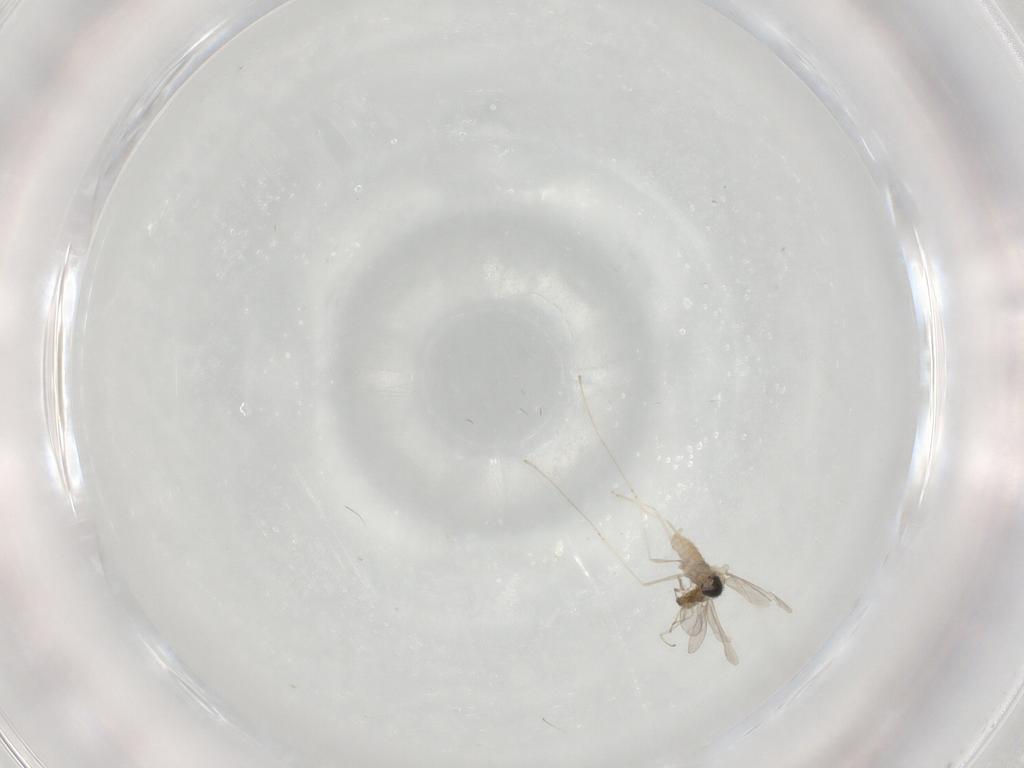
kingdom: Animalia
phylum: Arthropoda
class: Insecta
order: Diptera
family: Cecidomyiidae
